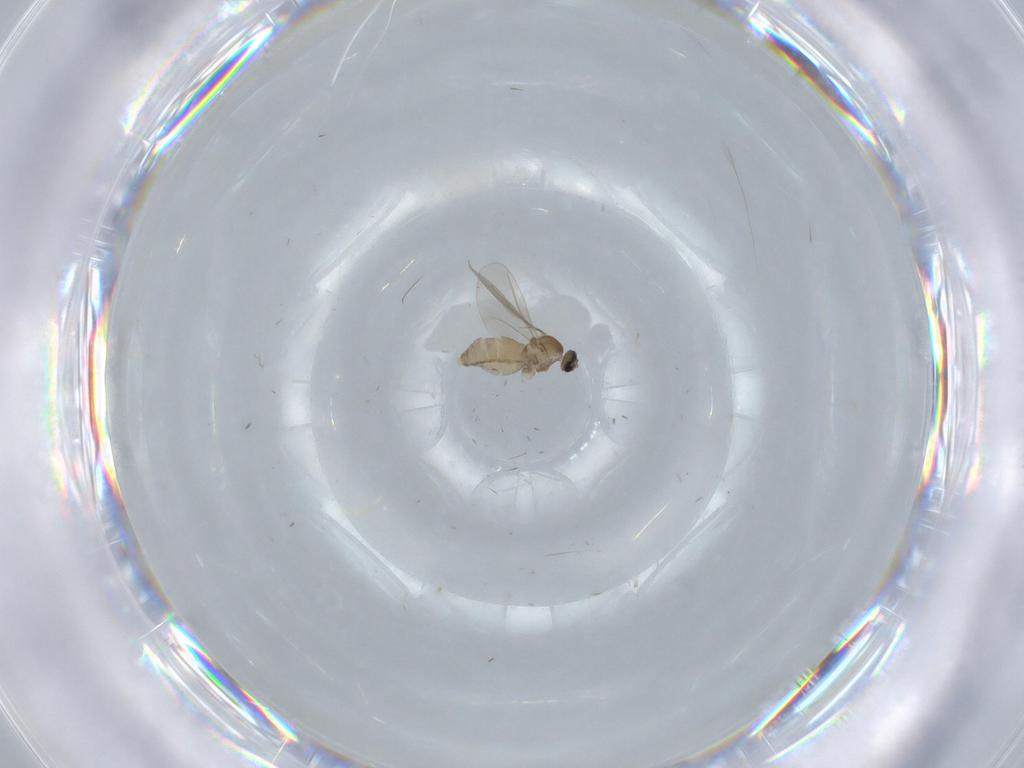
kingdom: Animalia
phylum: Arthropoda
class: Insecta
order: Diptera
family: Cecidomyiidae
